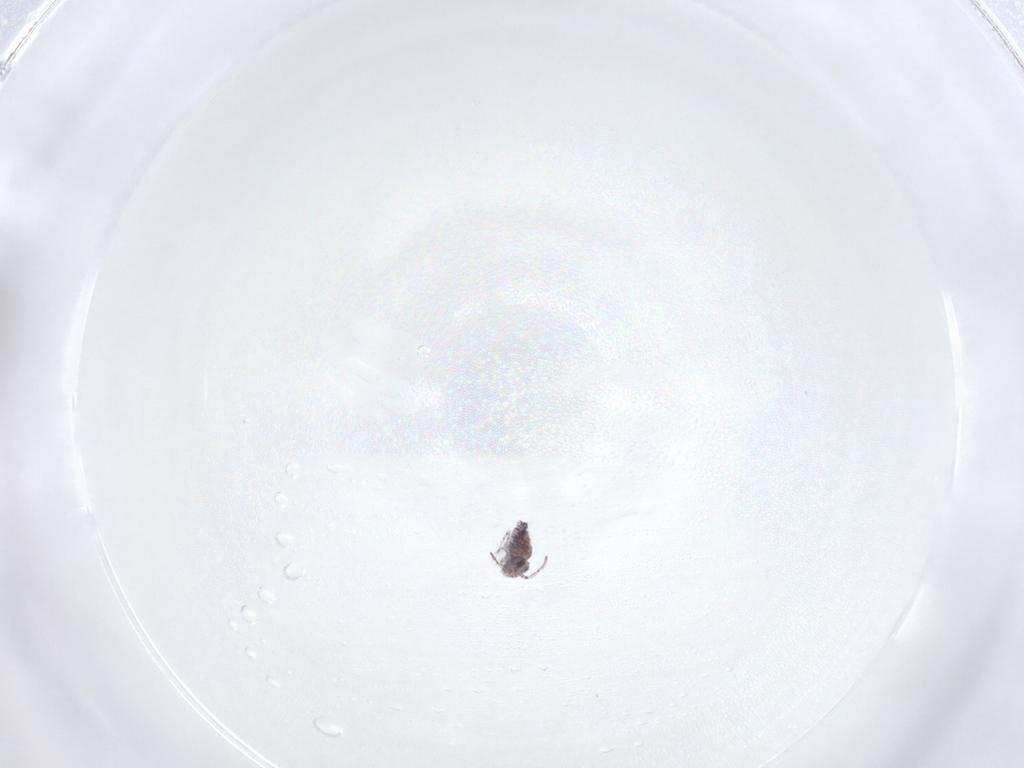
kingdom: Animalia
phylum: Arthropoda
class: Collembola
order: Symphypleona
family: Bourletiellidae
